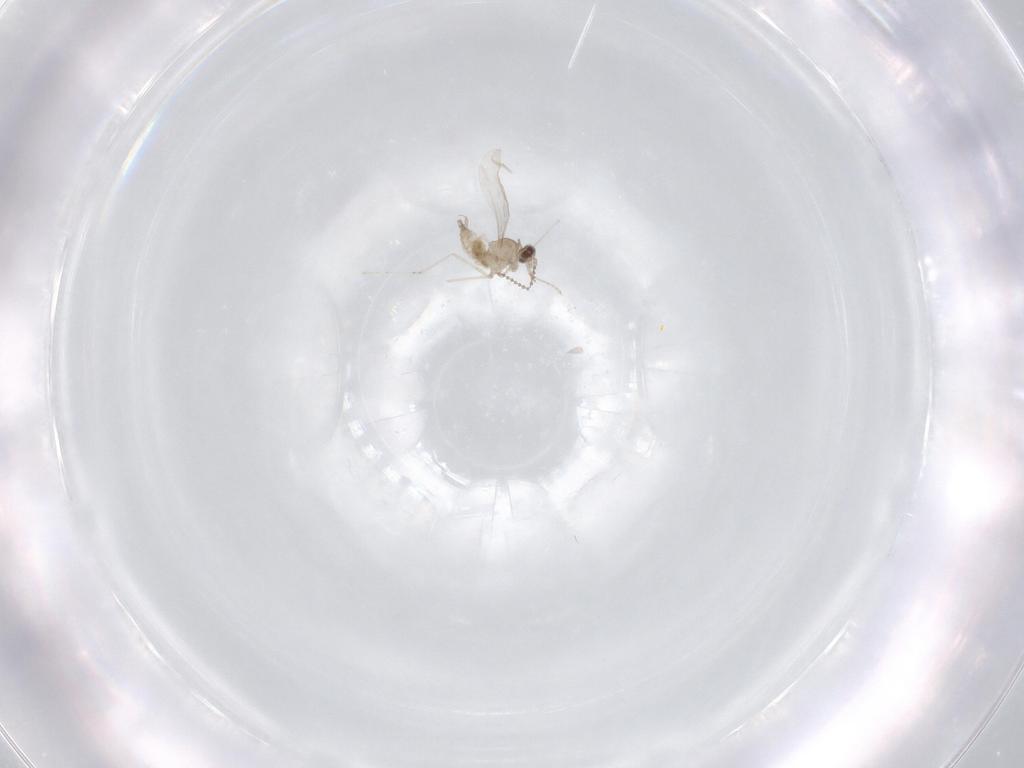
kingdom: Animalia
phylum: Arthropoda
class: Insecta
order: Diptera
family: Cecidomyiidae
